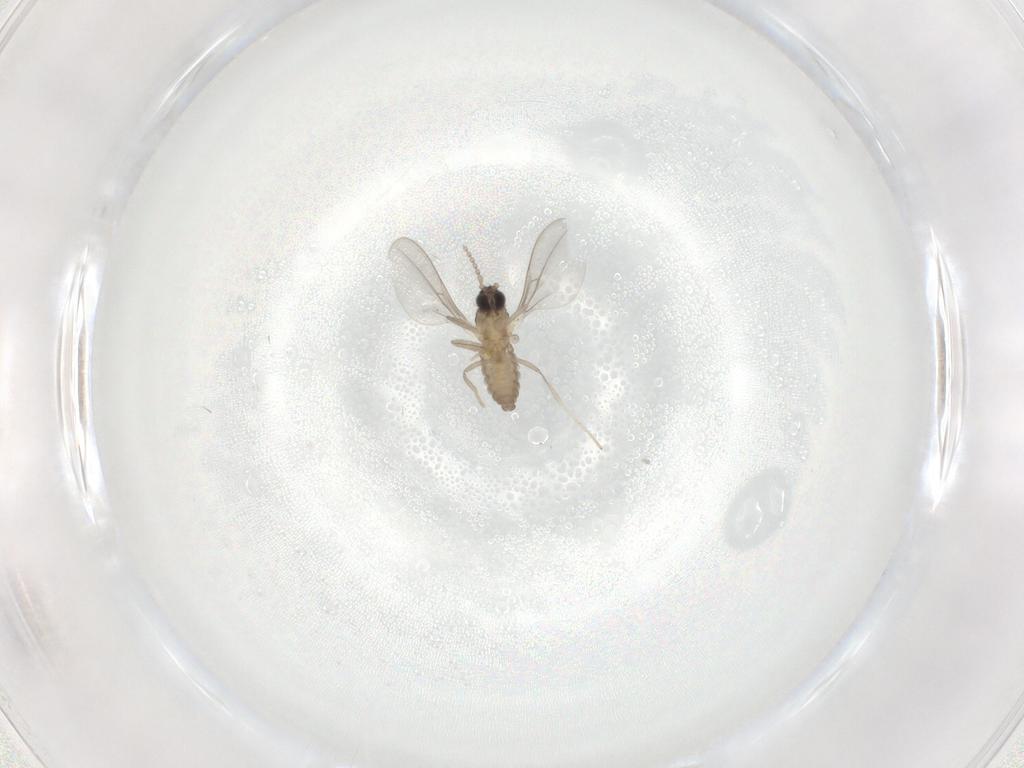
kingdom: Animalia
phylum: Arthropoda
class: Insecta
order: Diptera
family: Cecidomyiidae
